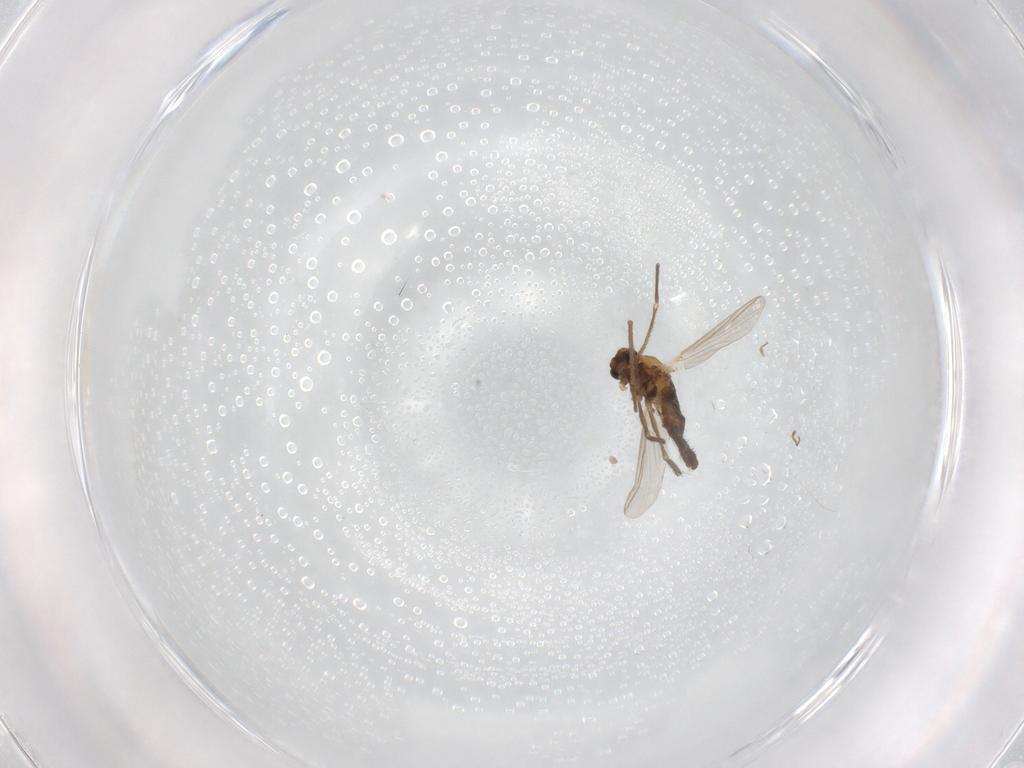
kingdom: Animalia
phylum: Arthropoda
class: Insecta
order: Diptera
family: Chironomidae
